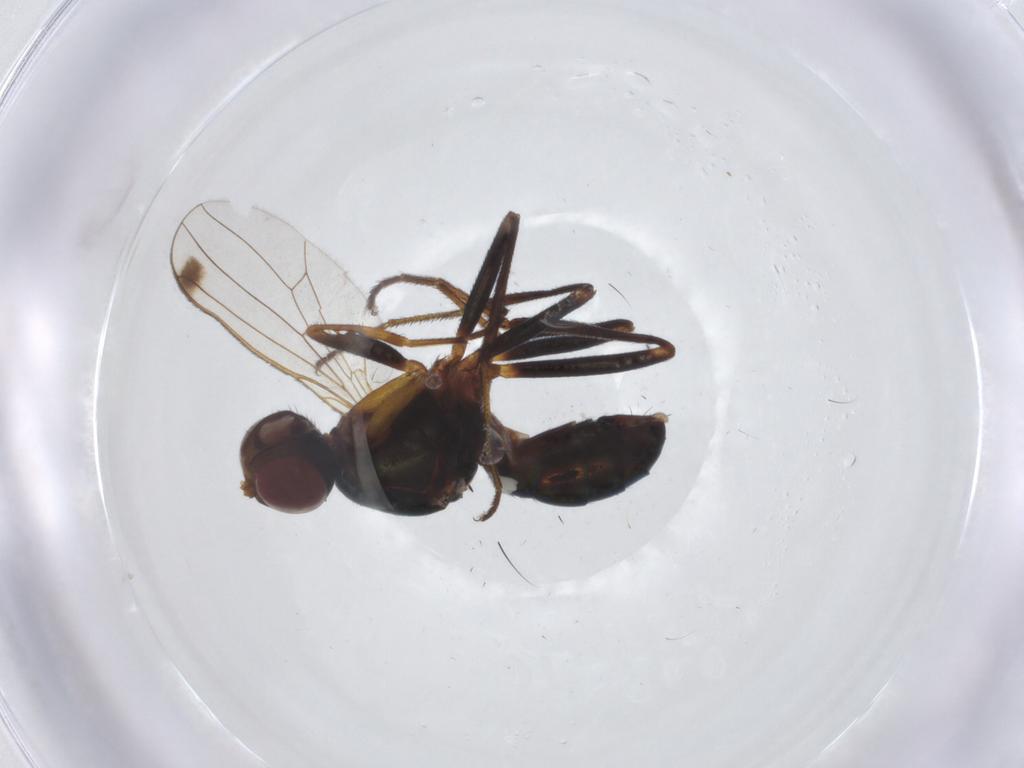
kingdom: Animalia
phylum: Arthropoda
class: Insecta
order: Diptera
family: Sepsidae
